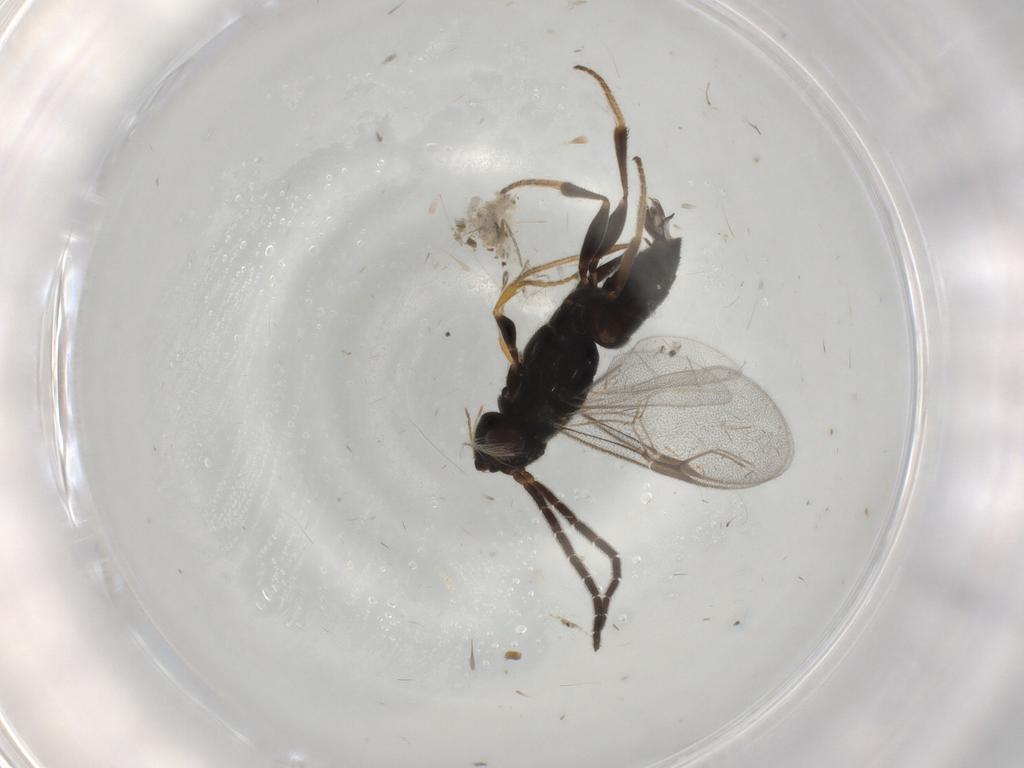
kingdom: Animalia
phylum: Arthropoda
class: Insecta
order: Hymenoptera
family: Dryinidae
